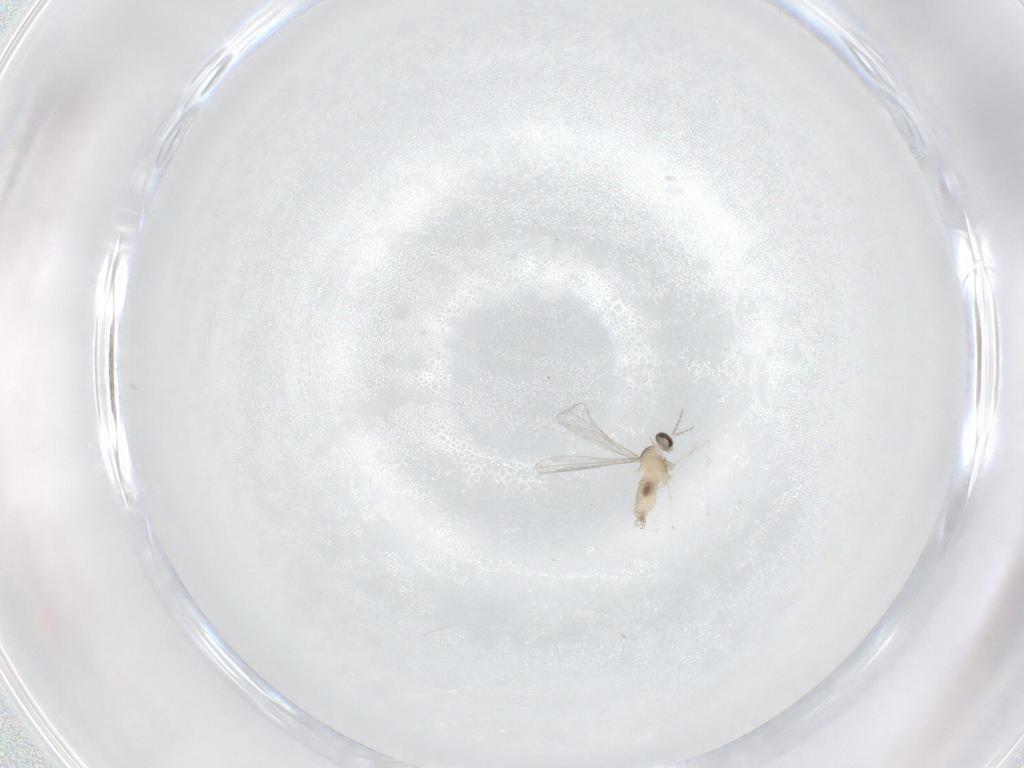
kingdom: Animalia
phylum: Arthropoda
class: Insecta
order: Diptera
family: Cecidomyiidae
